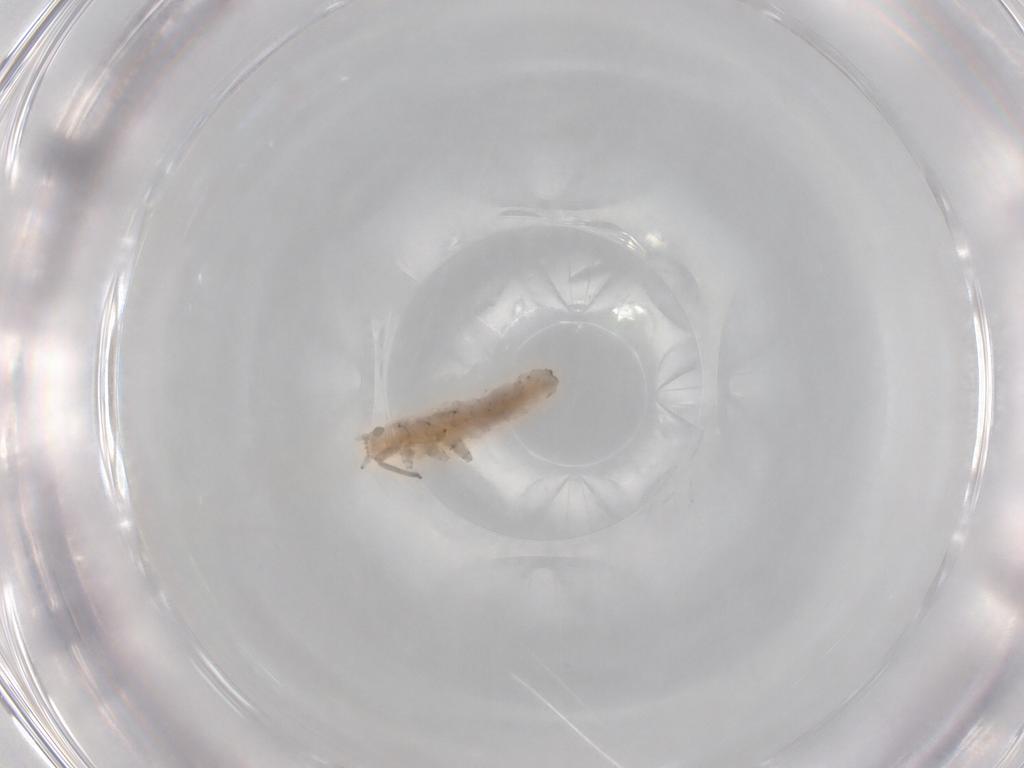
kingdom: Animalia
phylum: Arthropoda
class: Insecta
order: Hemiptera
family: Aphididae
